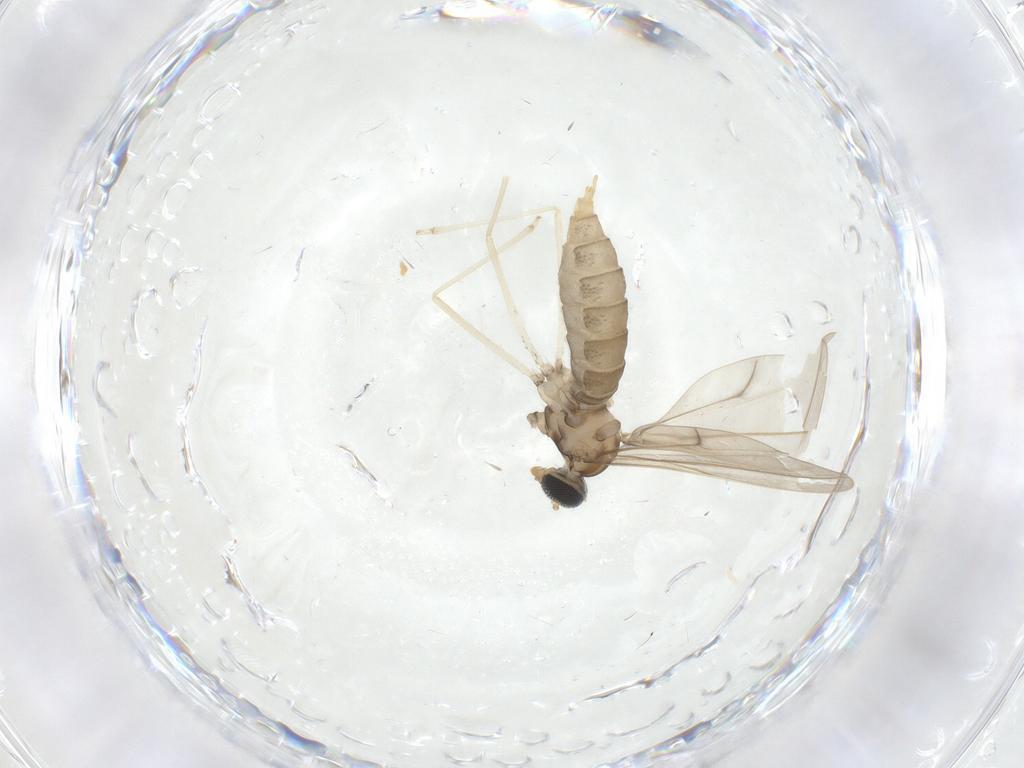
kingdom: Animalia
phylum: Arthropoda
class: Insecta
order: Diptera
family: Cecidomyiidae
